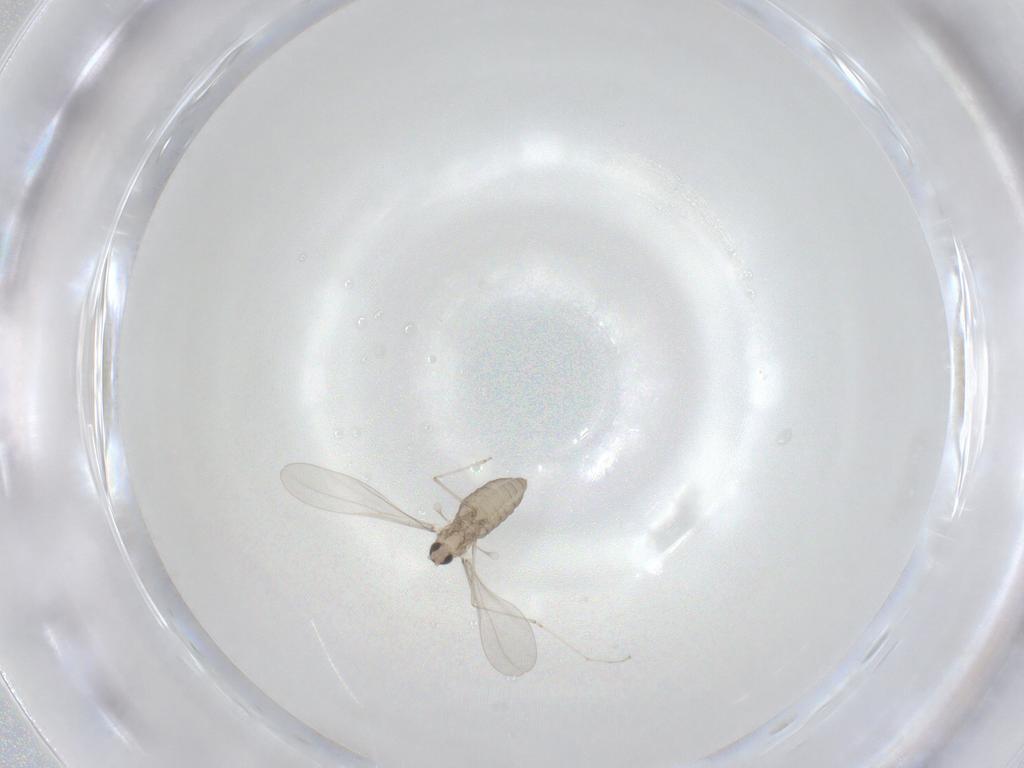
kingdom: Animalia
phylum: Arthropoda
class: Insecta
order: Diptera
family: Cecidomyiidae
